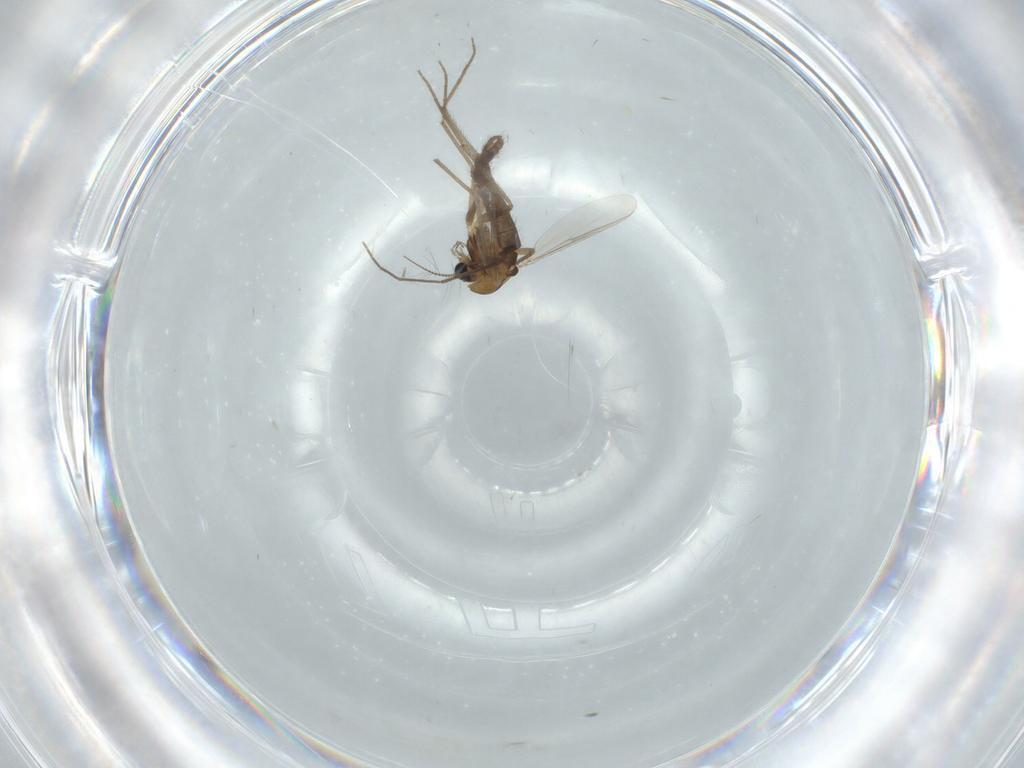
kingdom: Animalia
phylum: Arthropoda
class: Insecta
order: Diptera
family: Chironomidae
